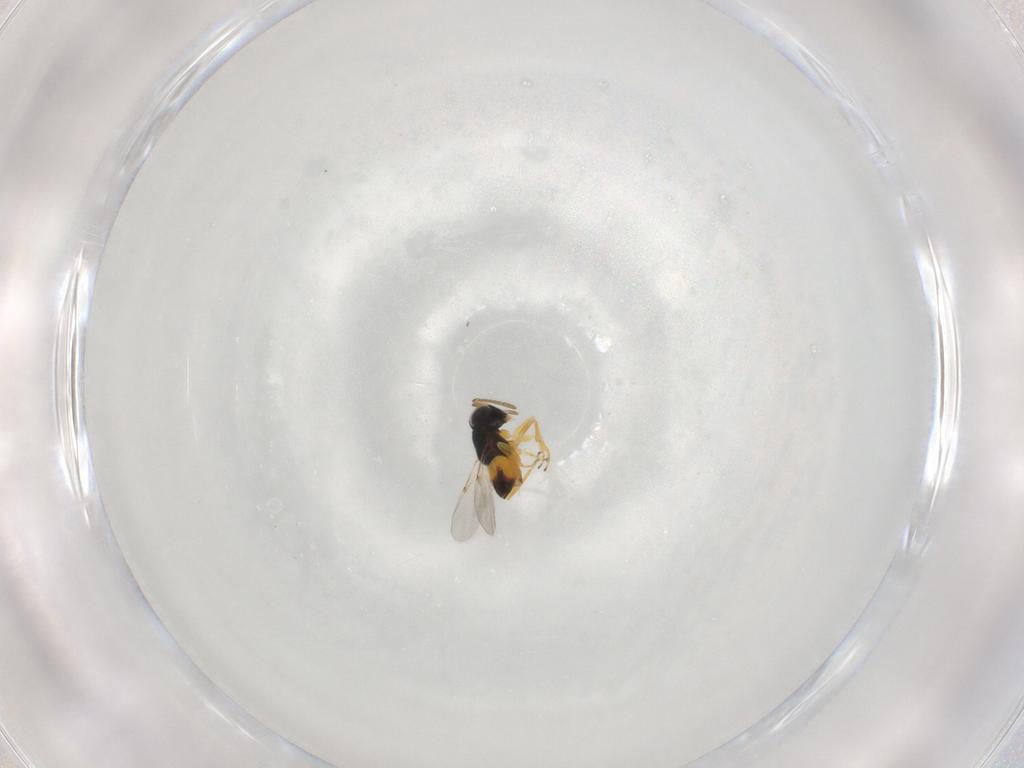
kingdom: Animalia
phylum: Arthropoda
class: Insecta
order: Hymenoptera
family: Encyrtidae
